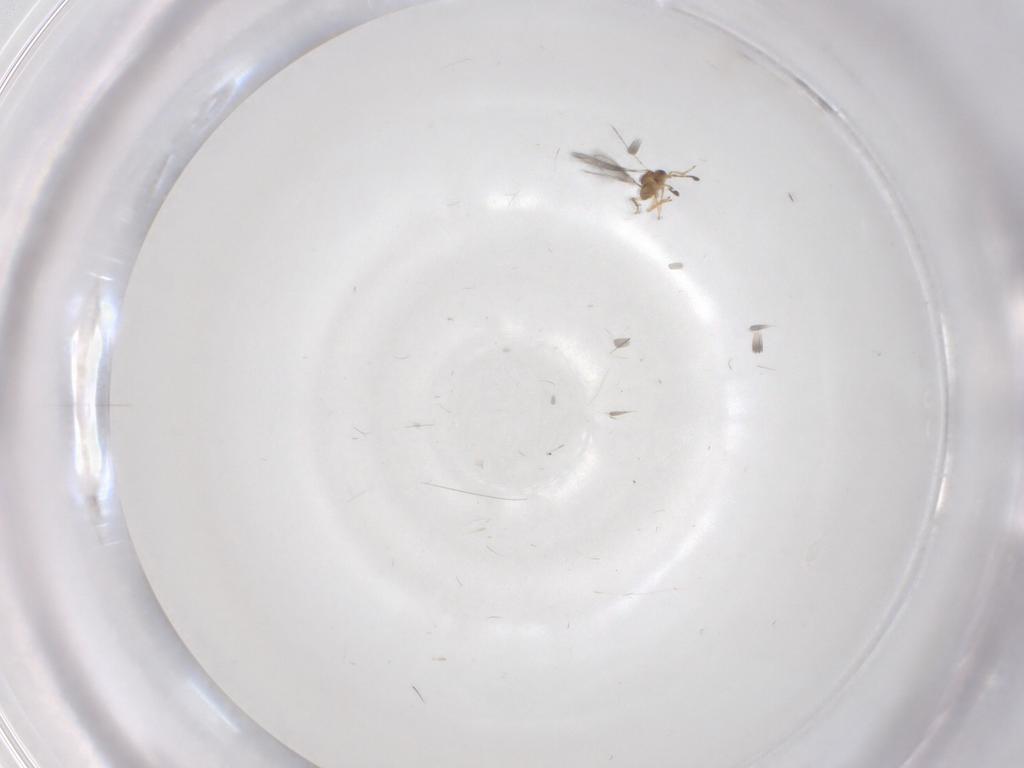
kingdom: Animalia
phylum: Arthropoda
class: Insecta
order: Hymenoptera
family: Mymaridae
